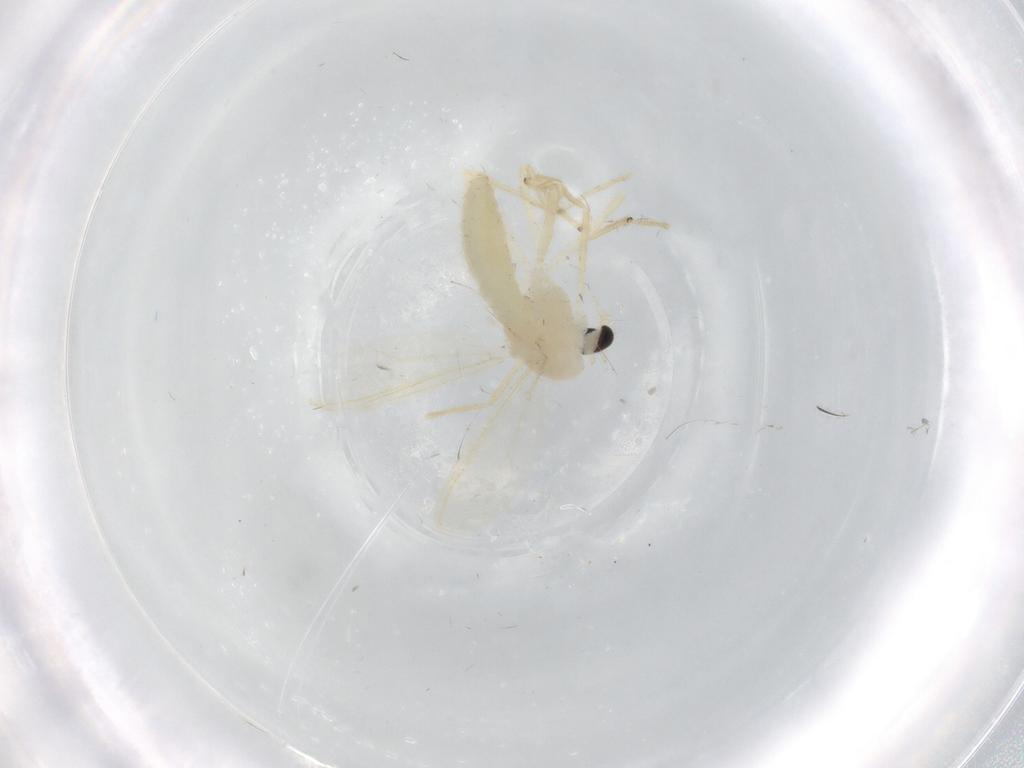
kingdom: Animalia
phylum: Arthropoda
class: Insecta
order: Diptera
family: Chironomidae
